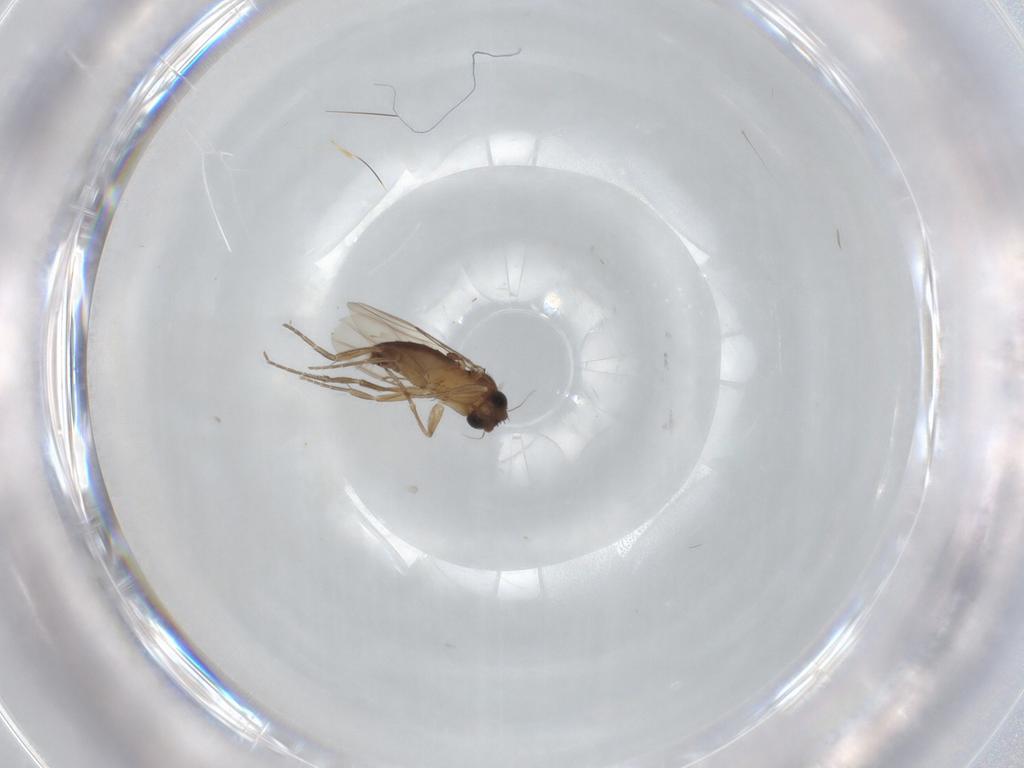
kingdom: Animalia
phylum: Arthropoda
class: Insecta
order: Diptera
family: Phoridae
